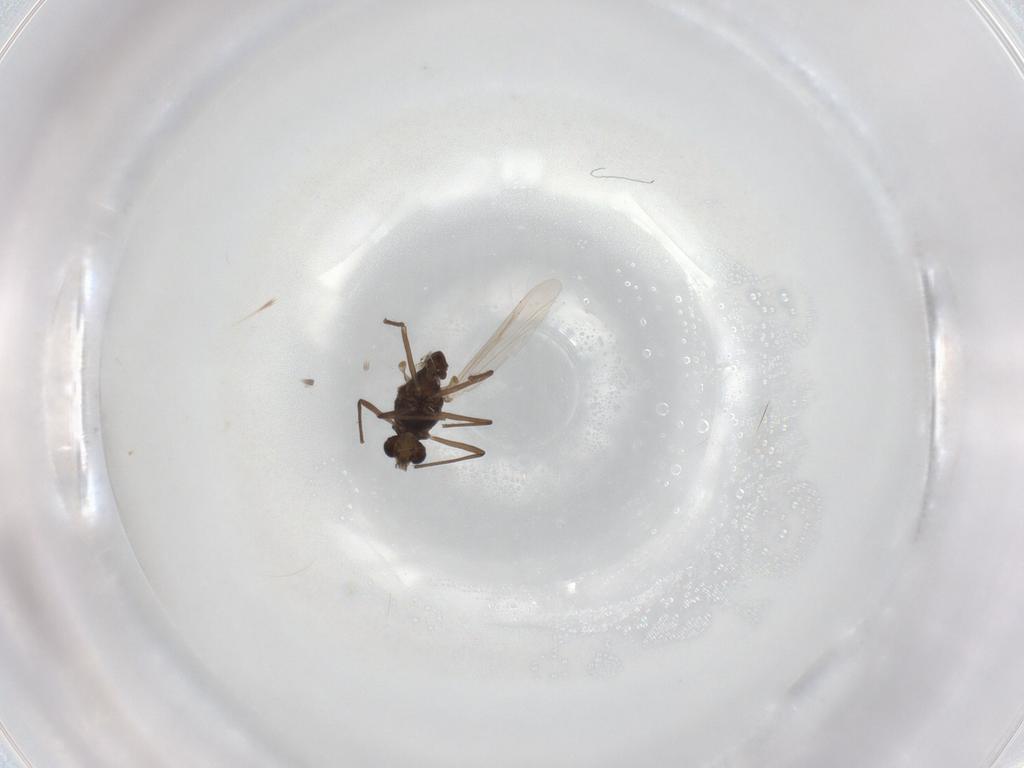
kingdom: Animalia
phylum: Arthropoda
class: Insecta
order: Diptera
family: Chironomidae
